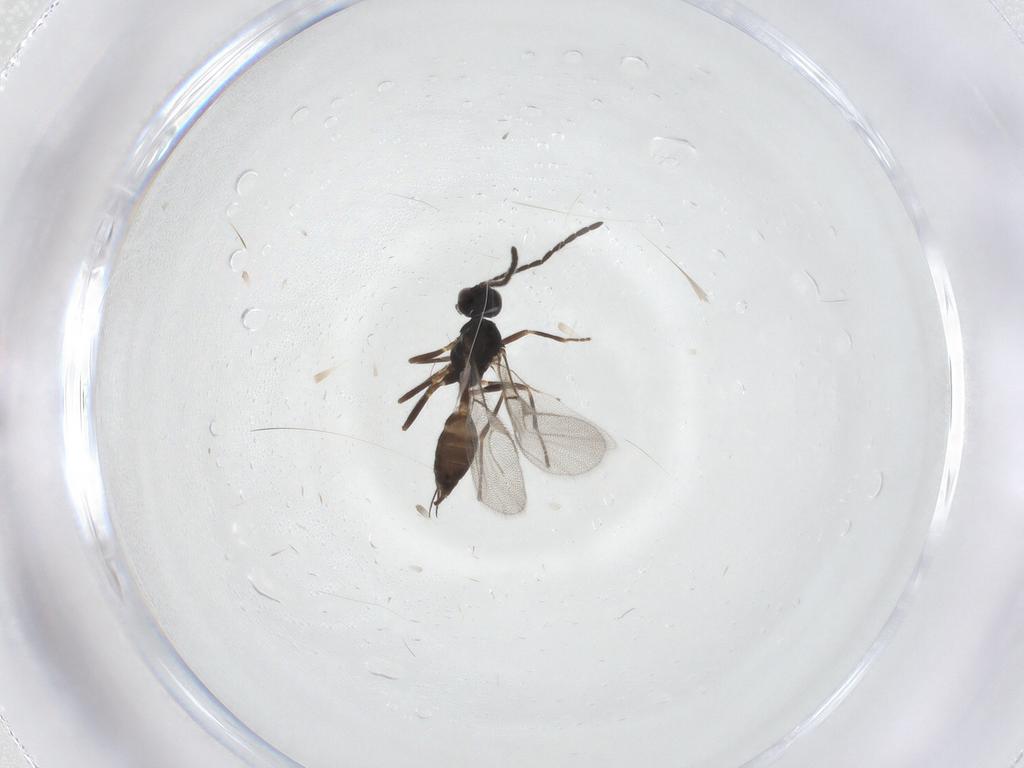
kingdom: Animalia
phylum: Arthropoda
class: Insecta
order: Hymenoptera
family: Braconidae
